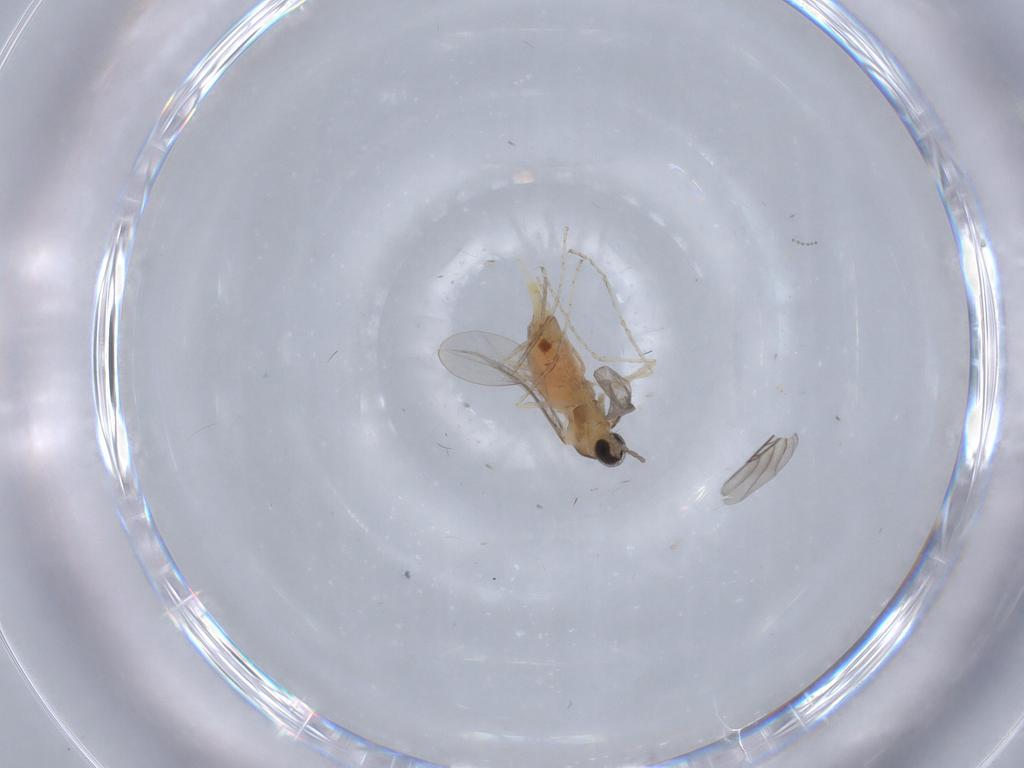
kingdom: Animalia
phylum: Arthropoda
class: Insecta
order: Diptera
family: Cecidomyiidae
